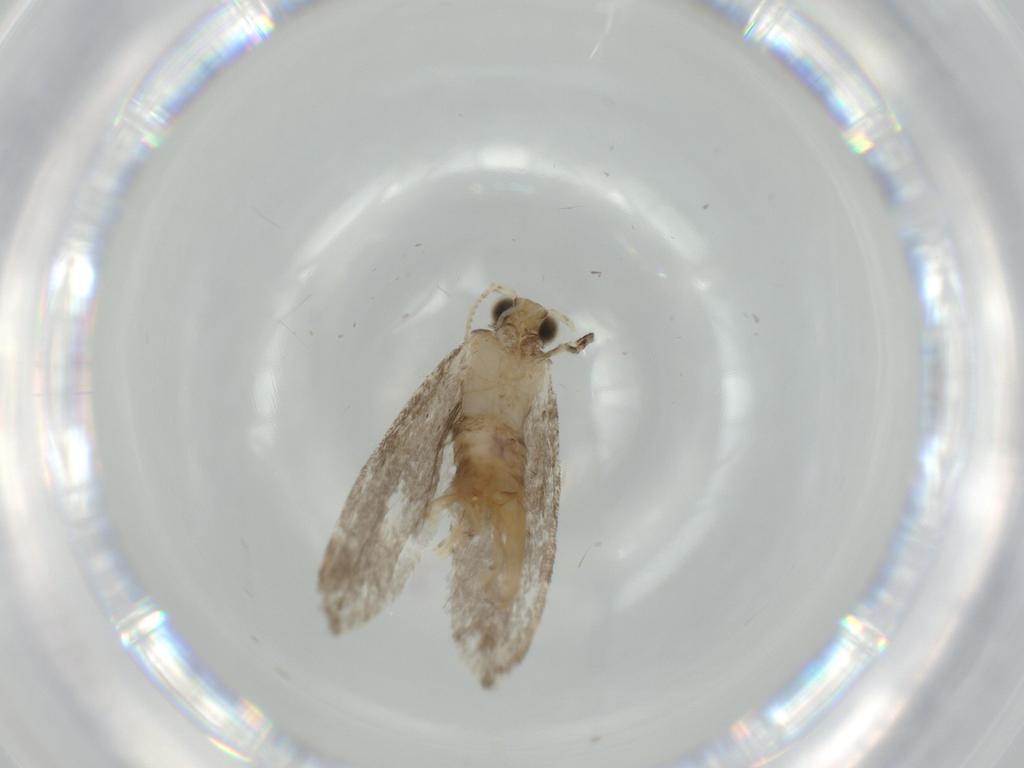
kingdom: Animalia
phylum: Arthropoda
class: Insecta
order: Lepidoptera
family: Tineidae
